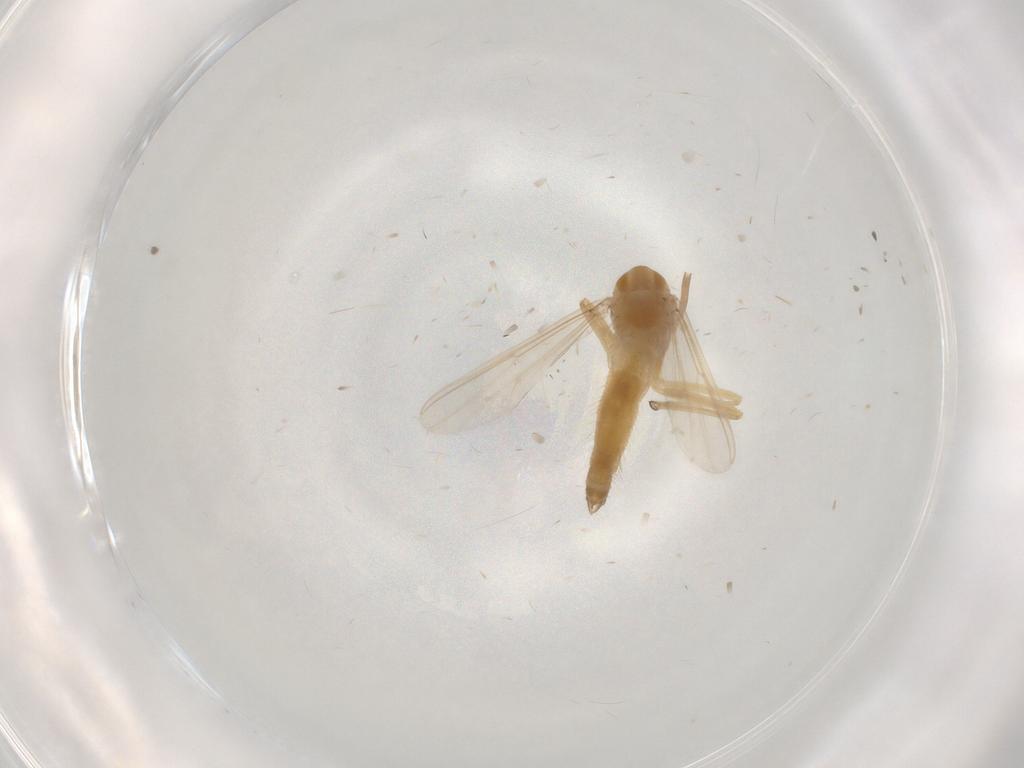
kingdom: Animalia
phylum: Arthropoda
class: Insecta
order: Diptera
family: Chironomidae
